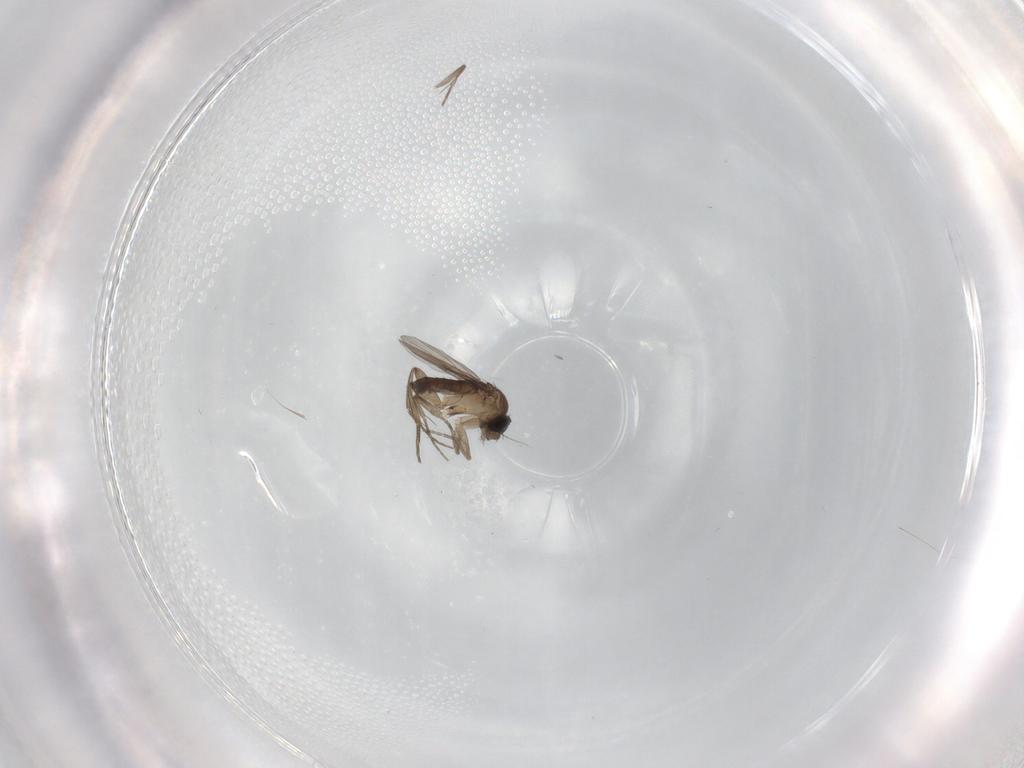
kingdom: Animalia
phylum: Arthropoda
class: Insecta
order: Diptera
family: Phoridae
